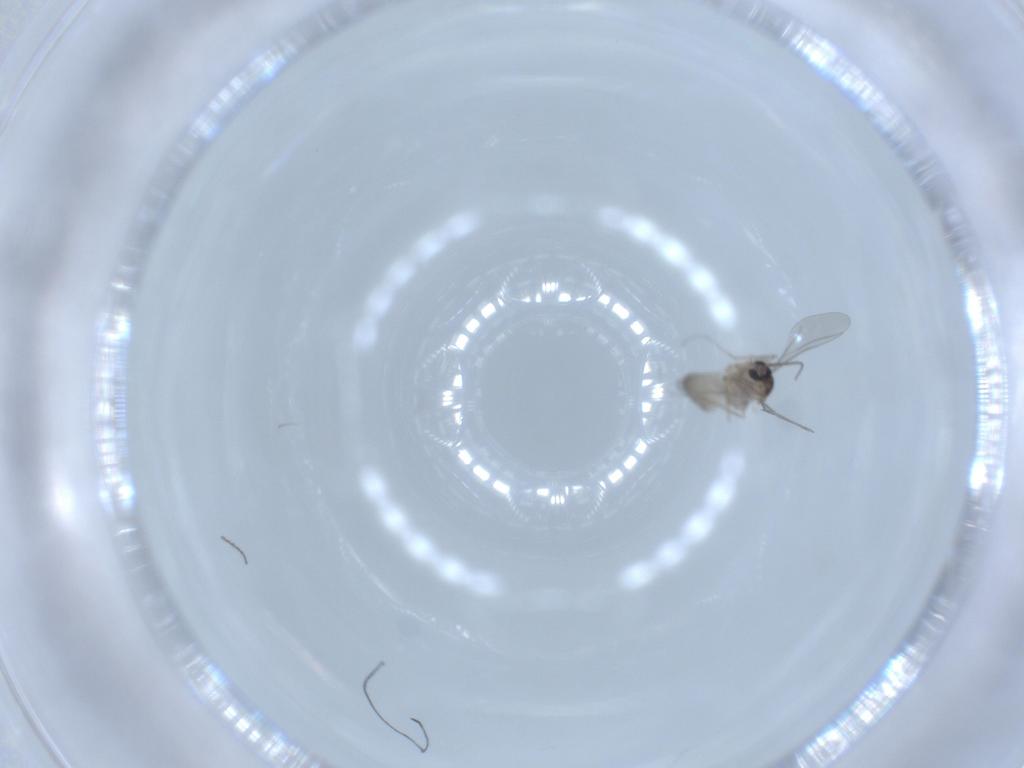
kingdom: Animalia
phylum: Arthropoda
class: Insecta
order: Diptera
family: Cecidomyiidae
